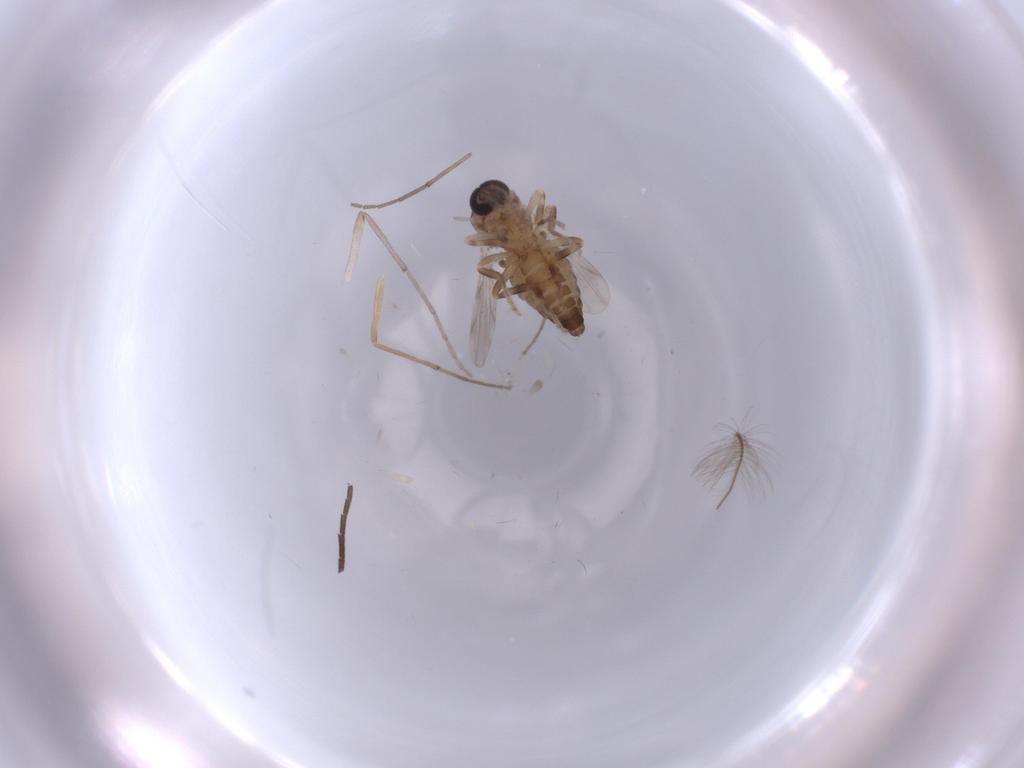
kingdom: Animalia
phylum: Arthropoda
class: Insecta
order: Diptera
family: Ceratopogonidae
